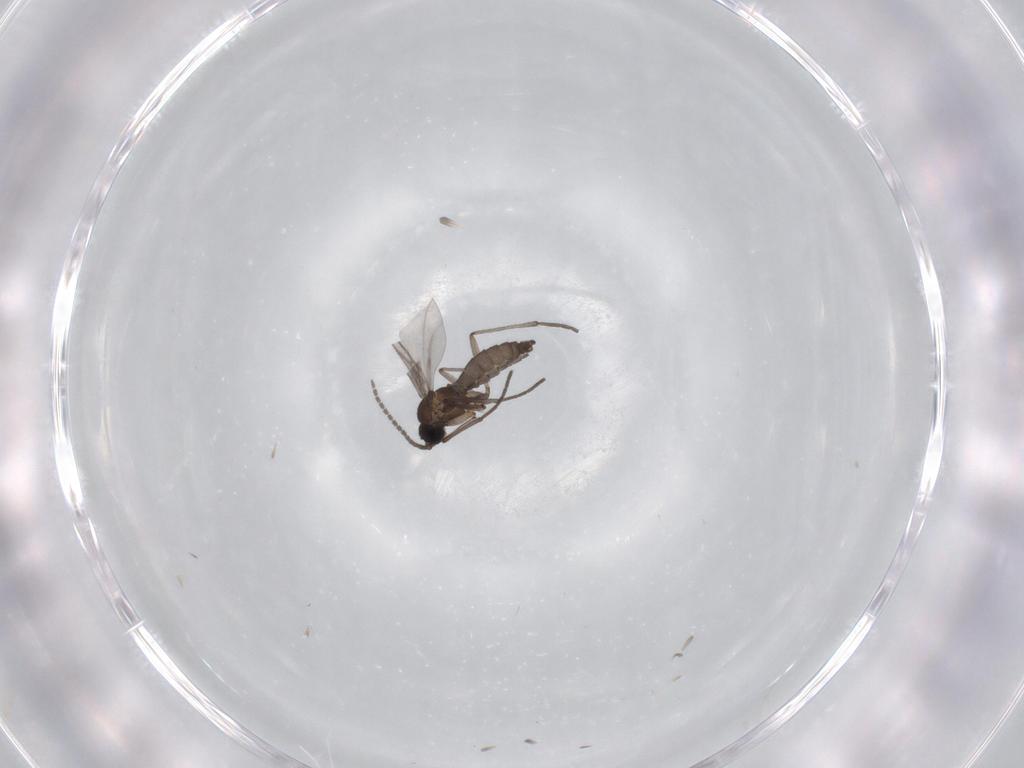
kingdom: Animalia
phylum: Arthropoda
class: Insecta
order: Diptera
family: Sciaridae
